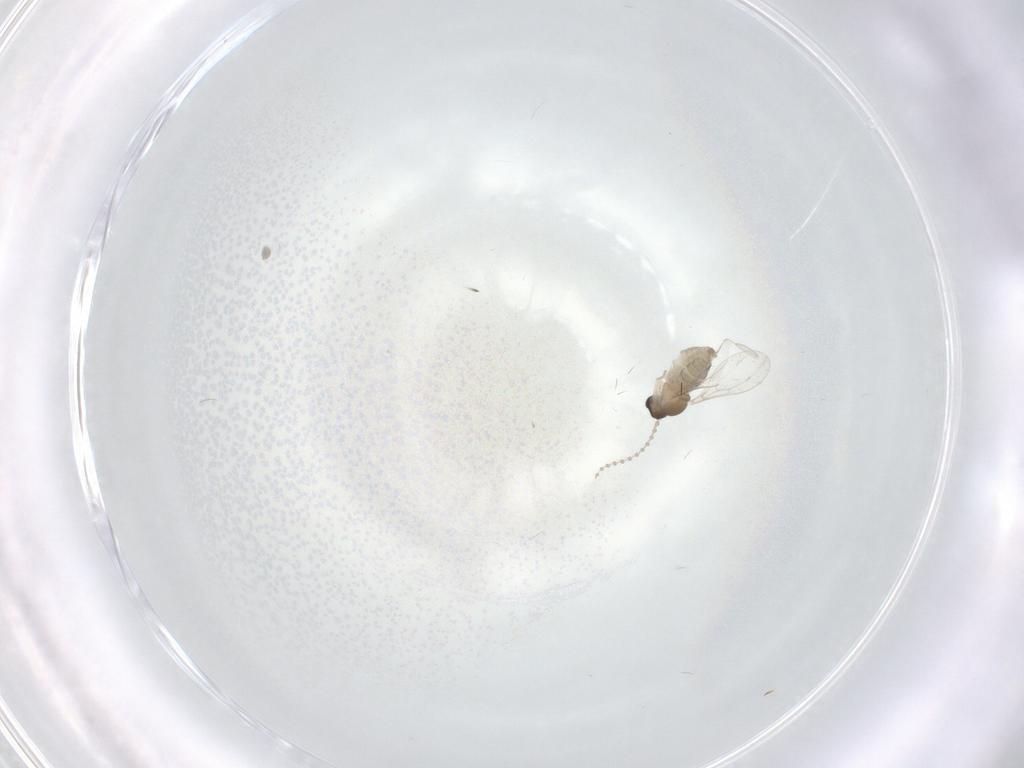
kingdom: Animalia
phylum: Arthropoda
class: Insecta
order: Diptera
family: Cecidomyiidae
